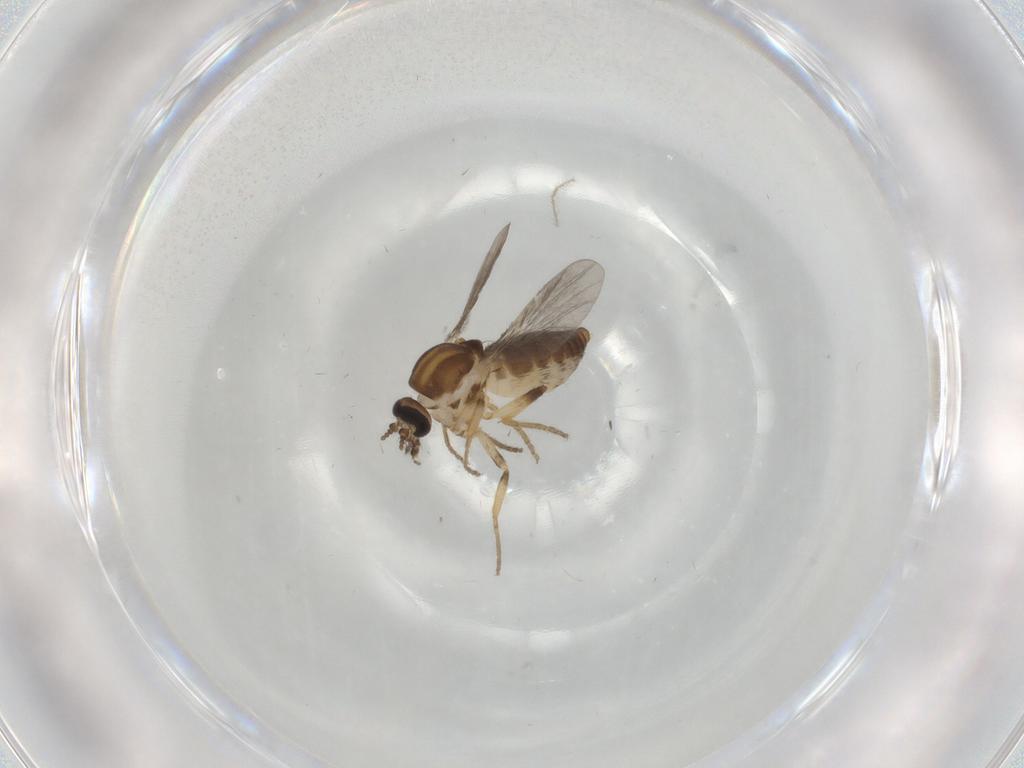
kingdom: Animalia
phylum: Arthropoda
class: Insecta
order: Diptera
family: Ceratopogonidae
